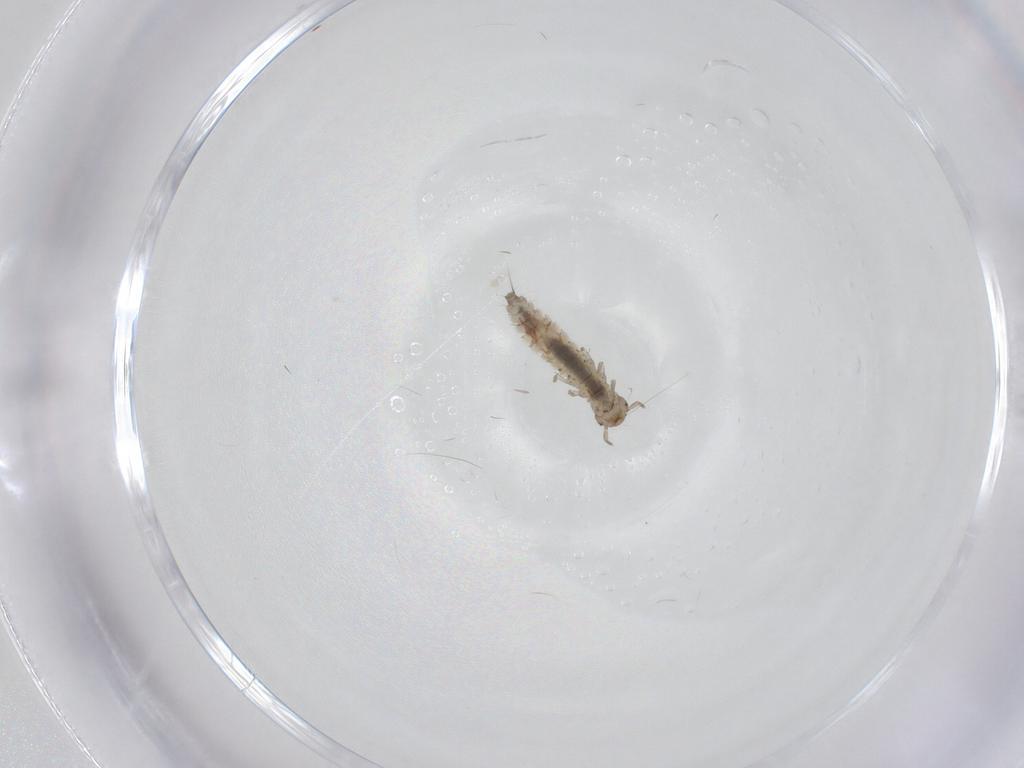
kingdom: Animalia
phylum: Arthropoda
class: Insecta
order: Coleoptera
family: Staphylinidae
